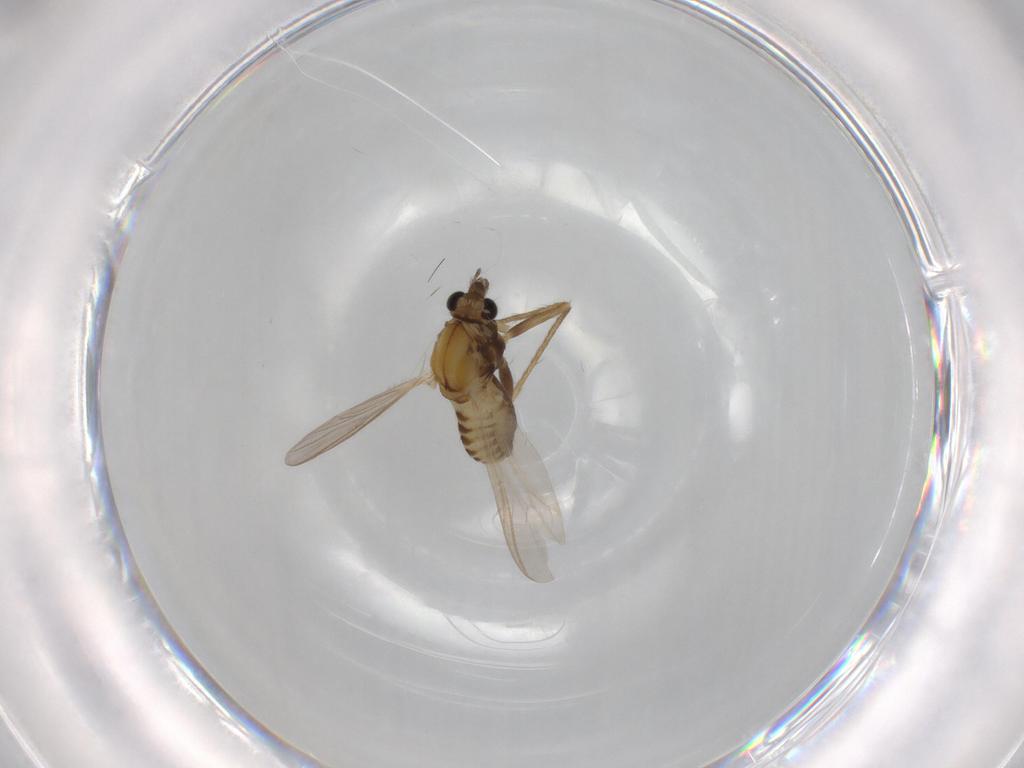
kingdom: Animalia
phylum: Arthropoda
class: Insecta
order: Diptera
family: Chironomidae
